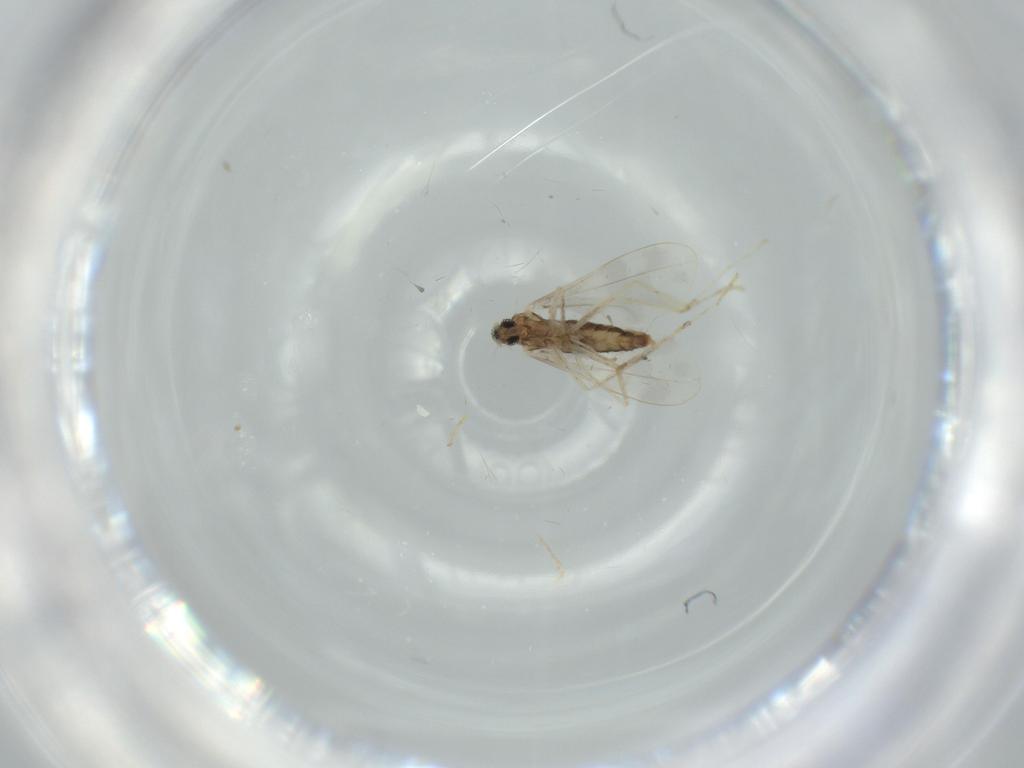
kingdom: Animalia
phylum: Arthropoda
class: Insecta
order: Diptera
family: Cecidomyiidae
